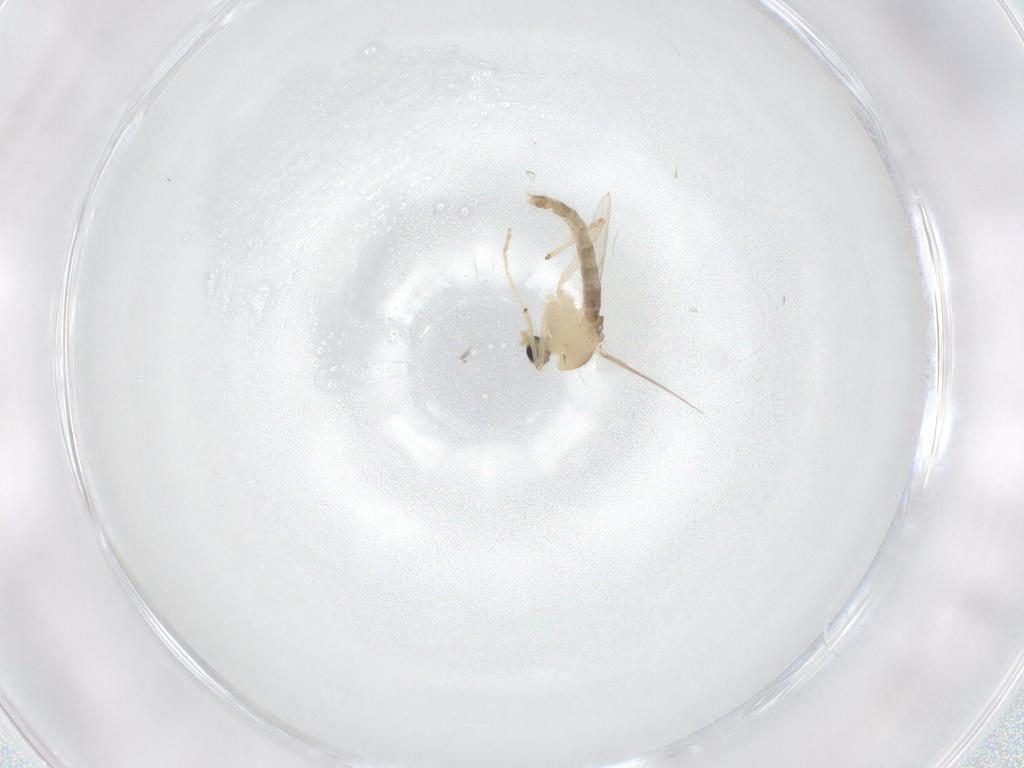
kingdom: Animalia
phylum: Arthropoda
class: Insecta
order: Diptera
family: Chironomidae
